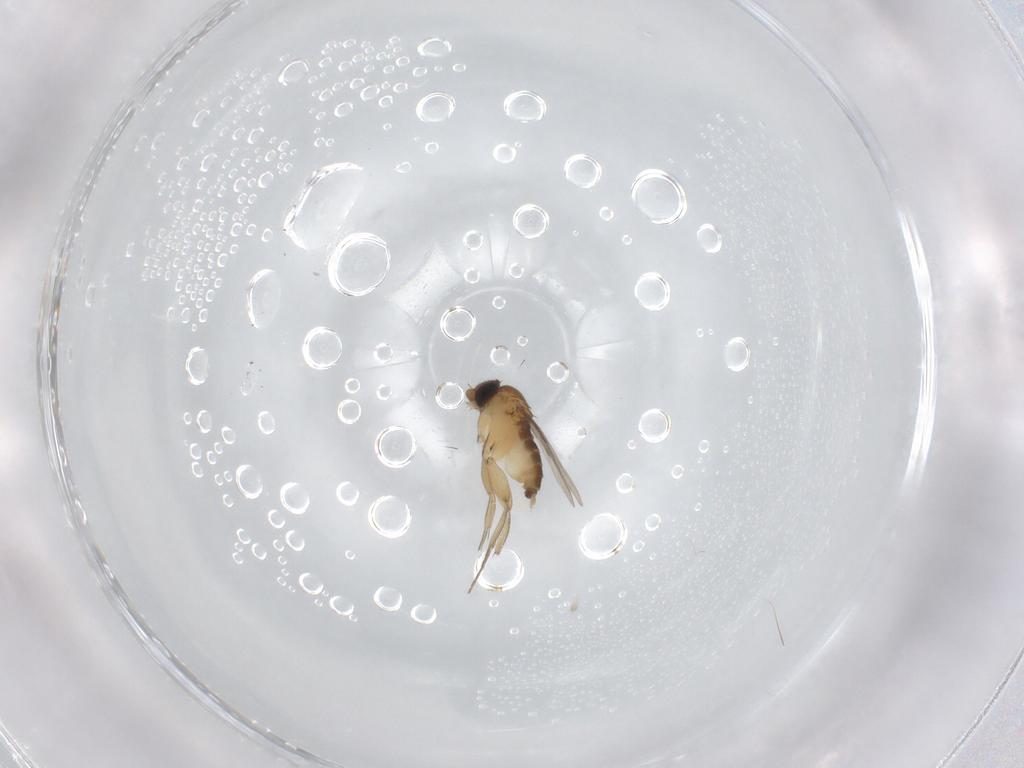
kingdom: Animalia
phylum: Arthropoda
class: Insecta
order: Diptera
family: Phoridae
